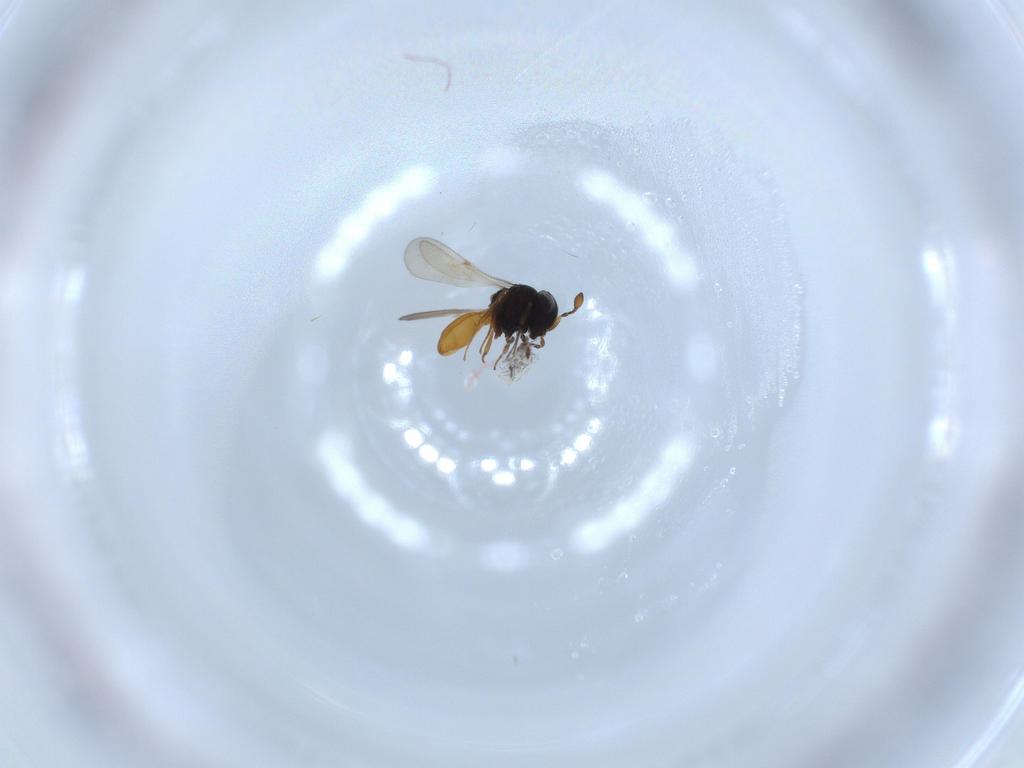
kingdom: Animalia
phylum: Arthropoda
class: Insecta
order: Hymenoptera
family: Scelionidae
